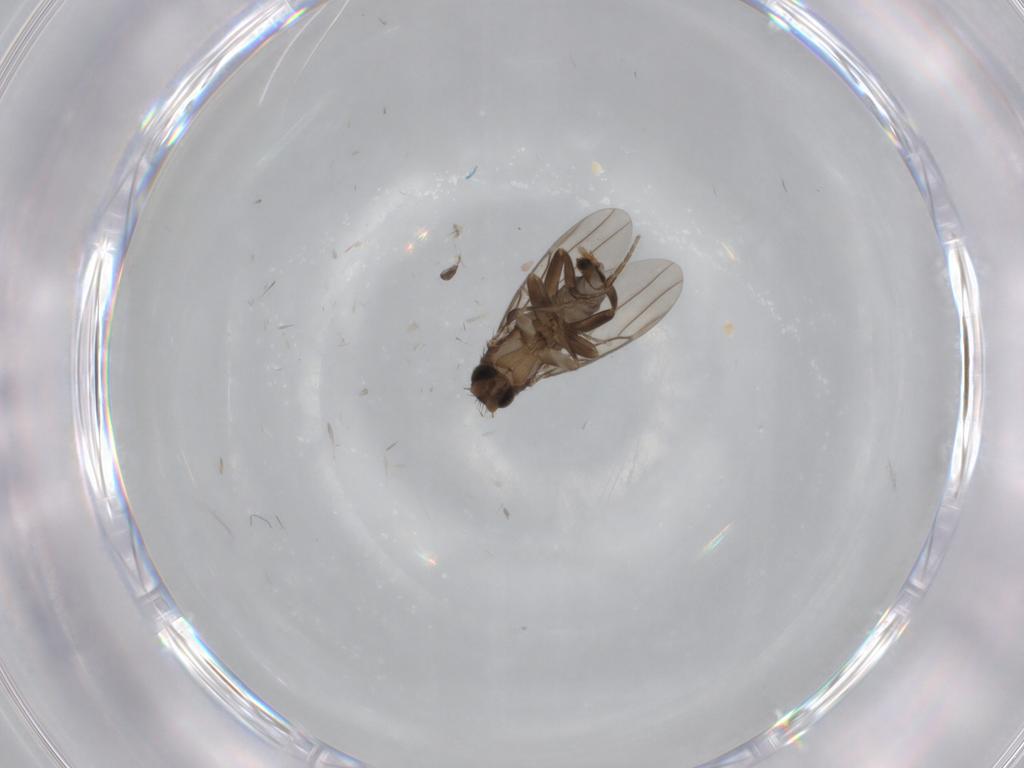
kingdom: Animalia
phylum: Arthropoda
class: Insecta
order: Diptera
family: Phoridae
